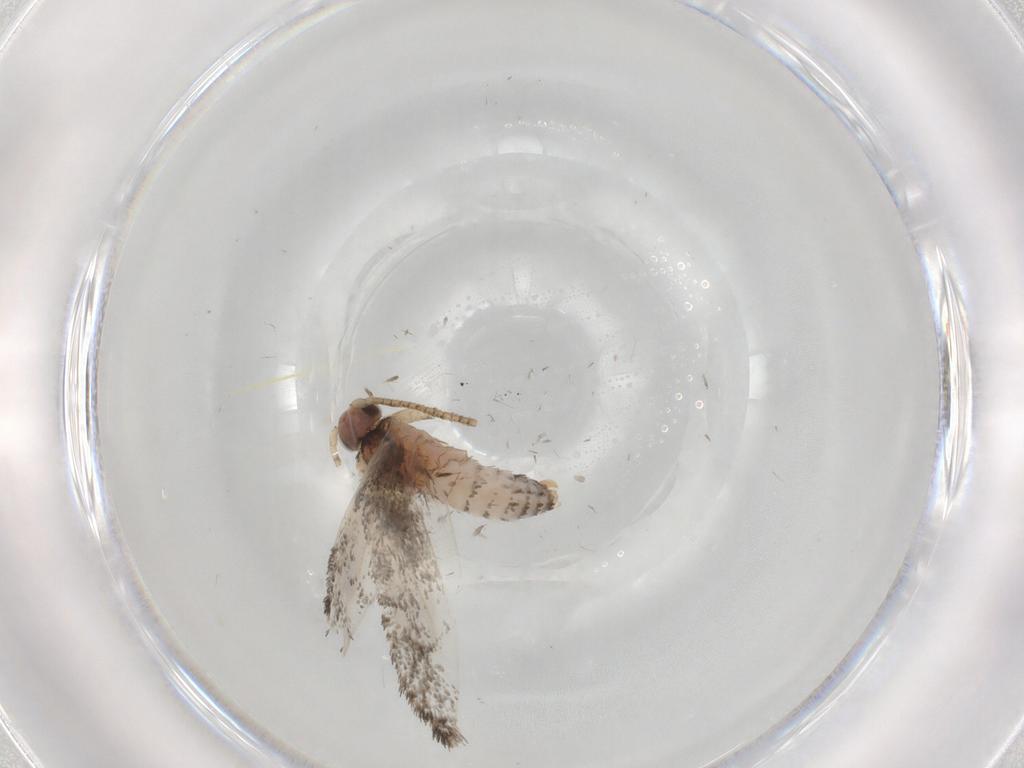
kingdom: Animalia
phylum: Arthropoda
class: Insecta
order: Lepidoptera
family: Tineidae
